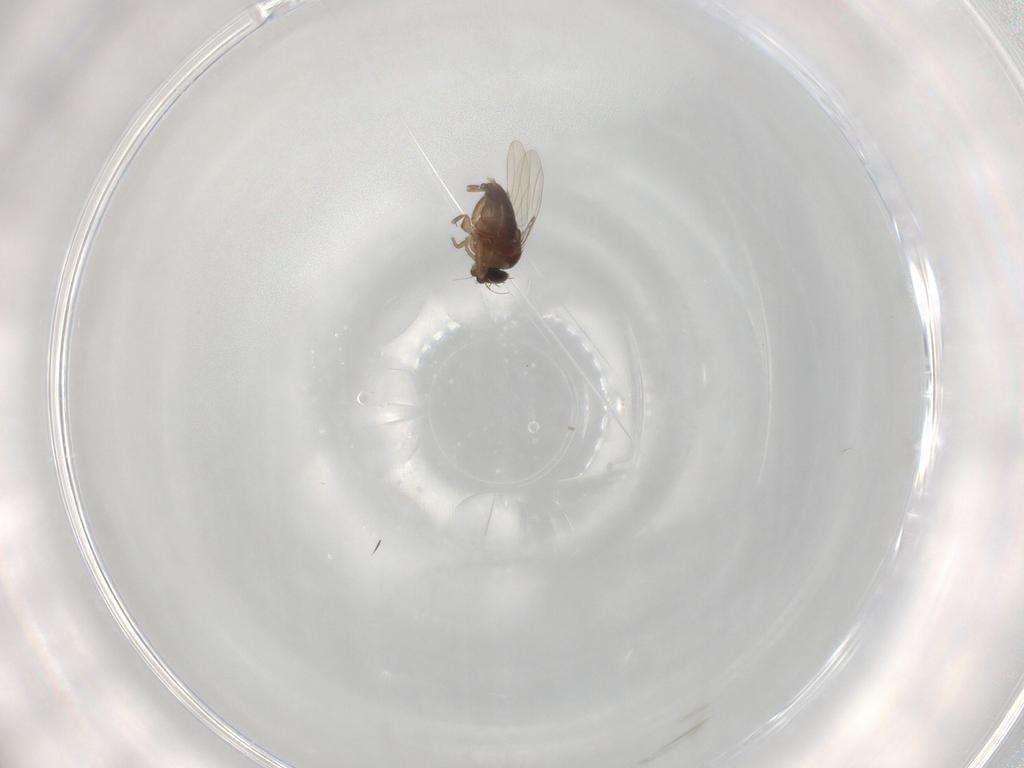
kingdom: Animalia
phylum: Arthropoda
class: Insecta
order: Diptera
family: Phoridae
